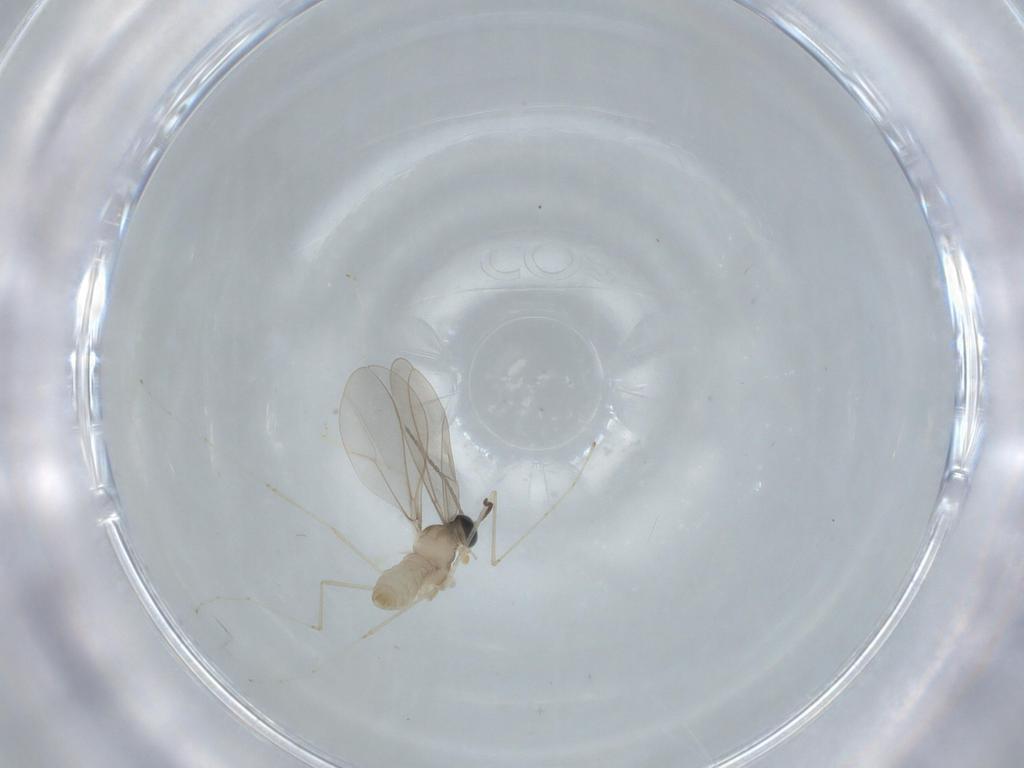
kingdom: Animalia
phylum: Arthropoda
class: Insecta
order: Diptera
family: Cecidomyiidae
